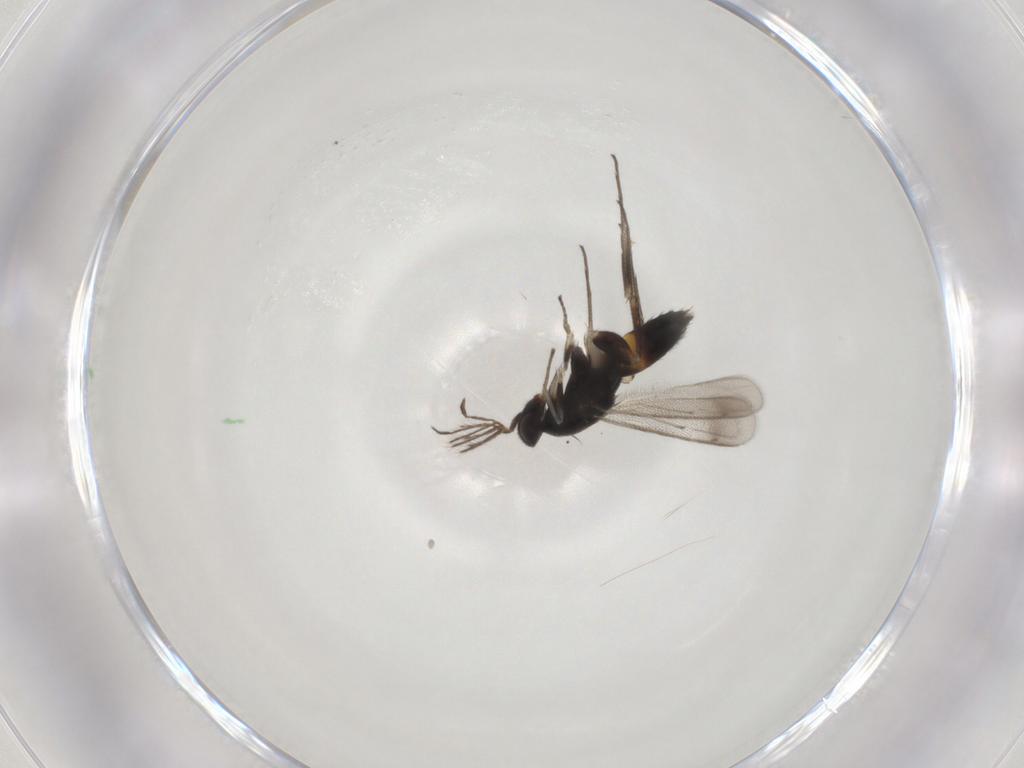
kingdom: Animalia
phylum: Arthropoda
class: Insecta
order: Hymenoptera
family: Eulophidae
